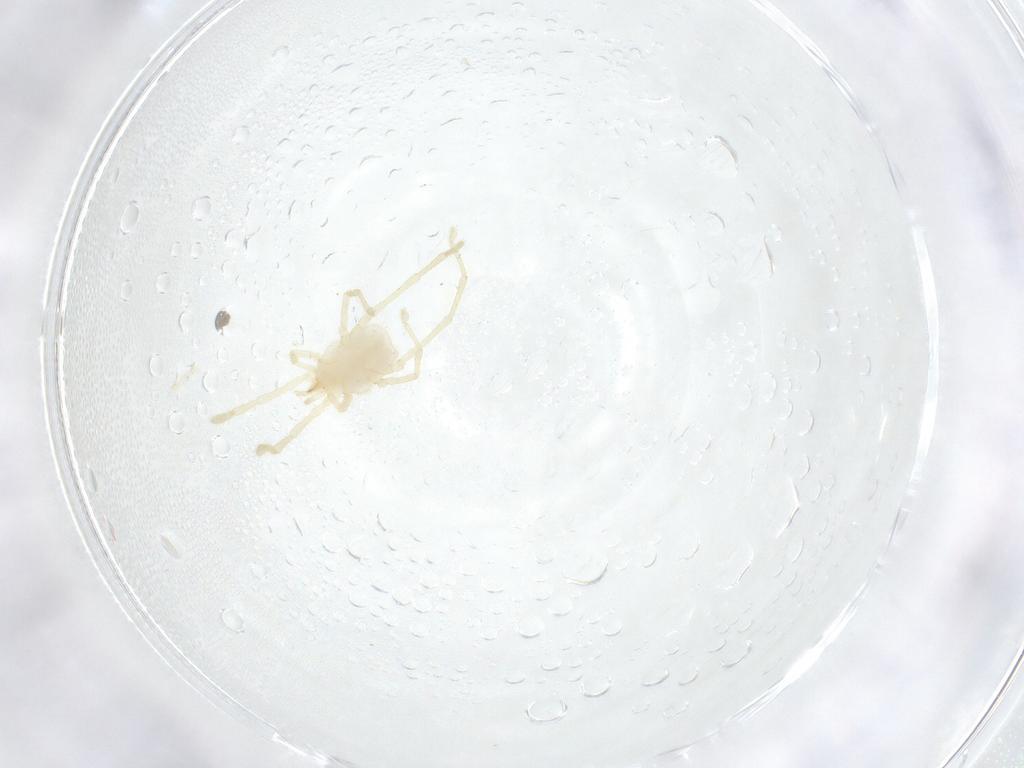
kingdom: Animalia
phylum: Arthropoda
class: Arachnida
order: Trombidiformes
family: Erythraeidae
